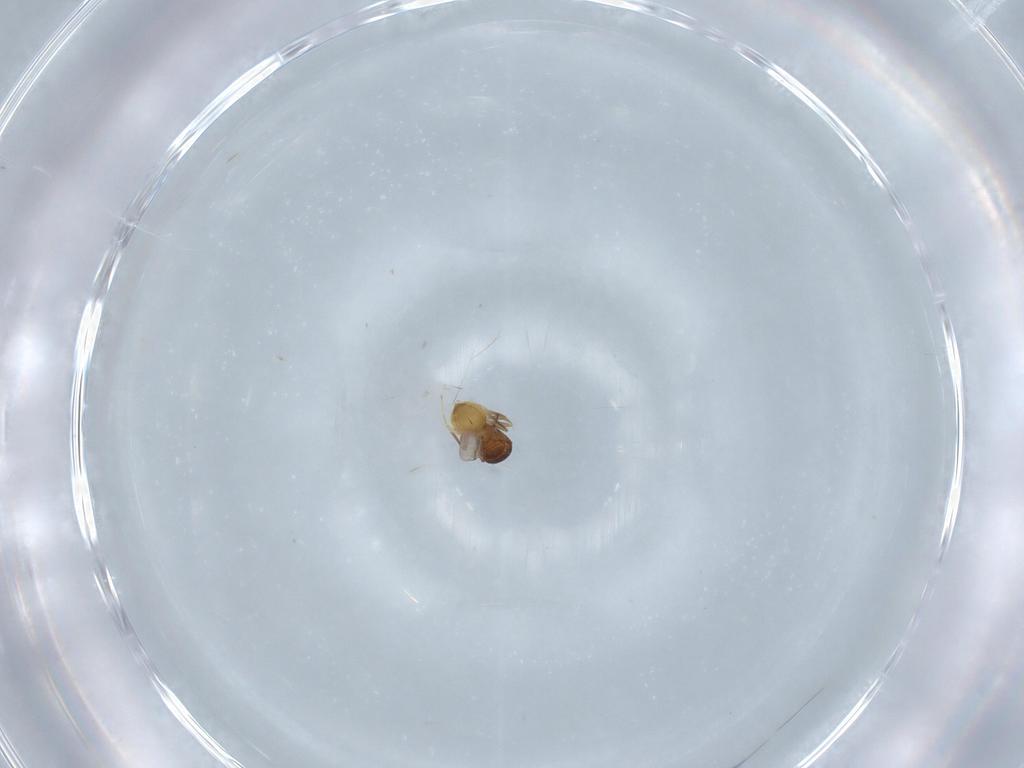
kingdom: Animalia
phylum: Arthropoda
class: Insecta
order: Hymenoptera
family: Scelionidae
